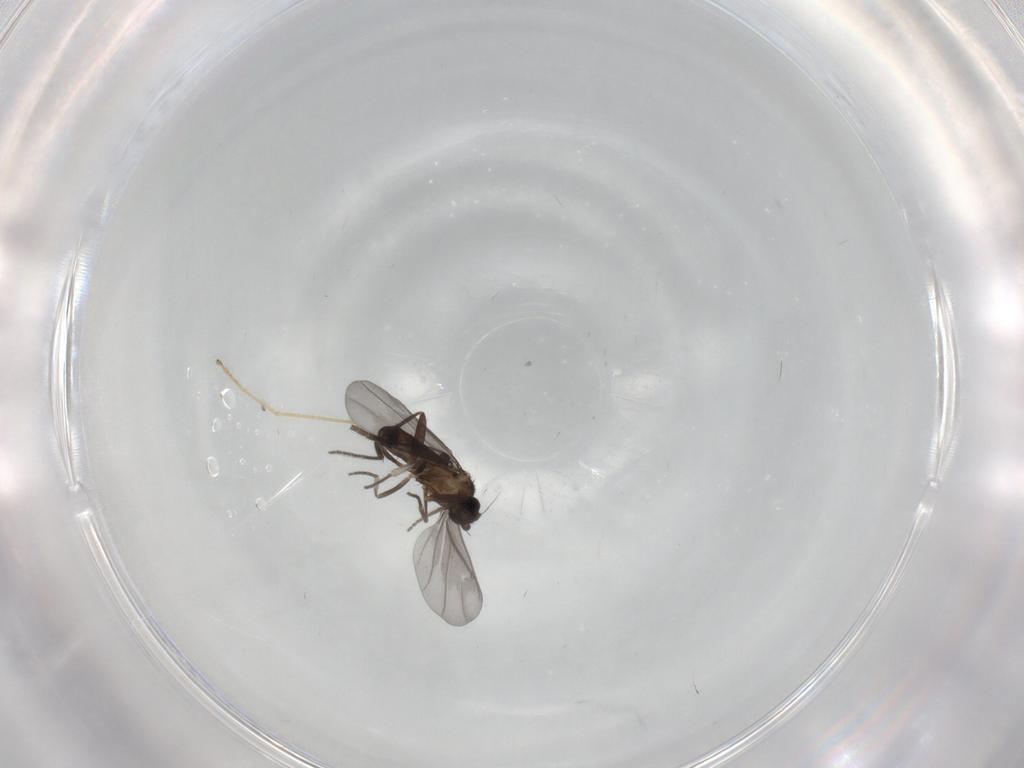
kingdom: Animalia
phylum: Arthropoda
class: Insecta
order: Diptera
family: Phoridae
